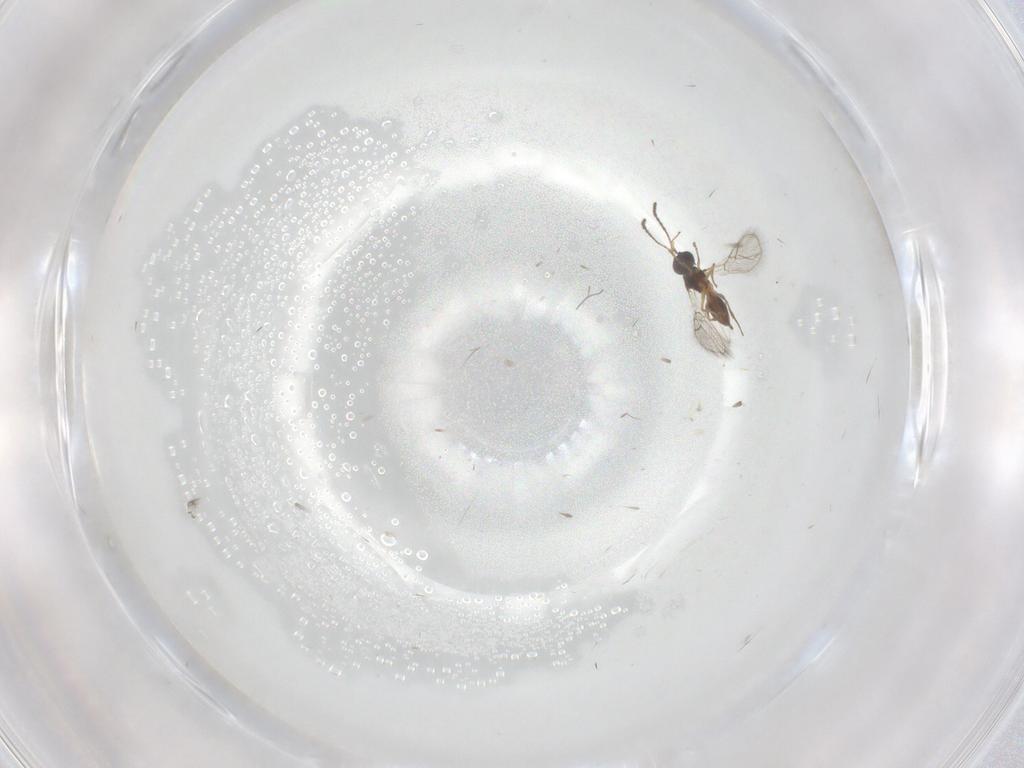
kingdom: Animalia
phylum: Arthropoda
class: Insecta
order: Hymenoptera
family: Figitidae
